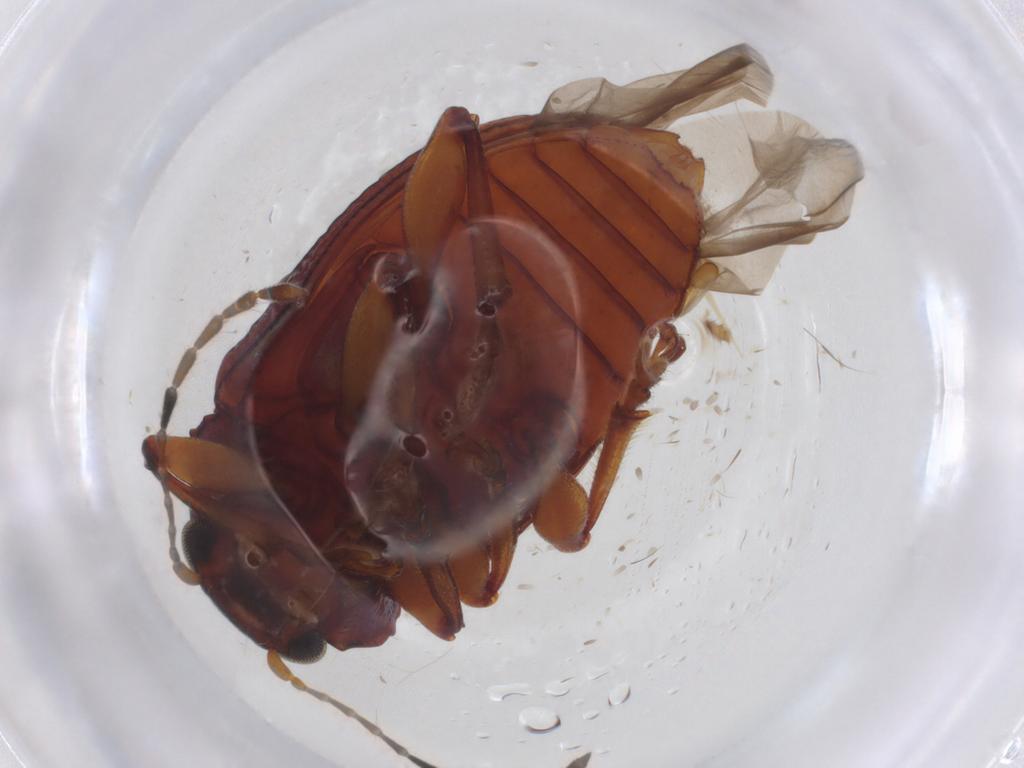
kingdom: Animalia
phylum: Arthropoda
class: Insecta
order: Coleoptera
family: Chrysomelidae
